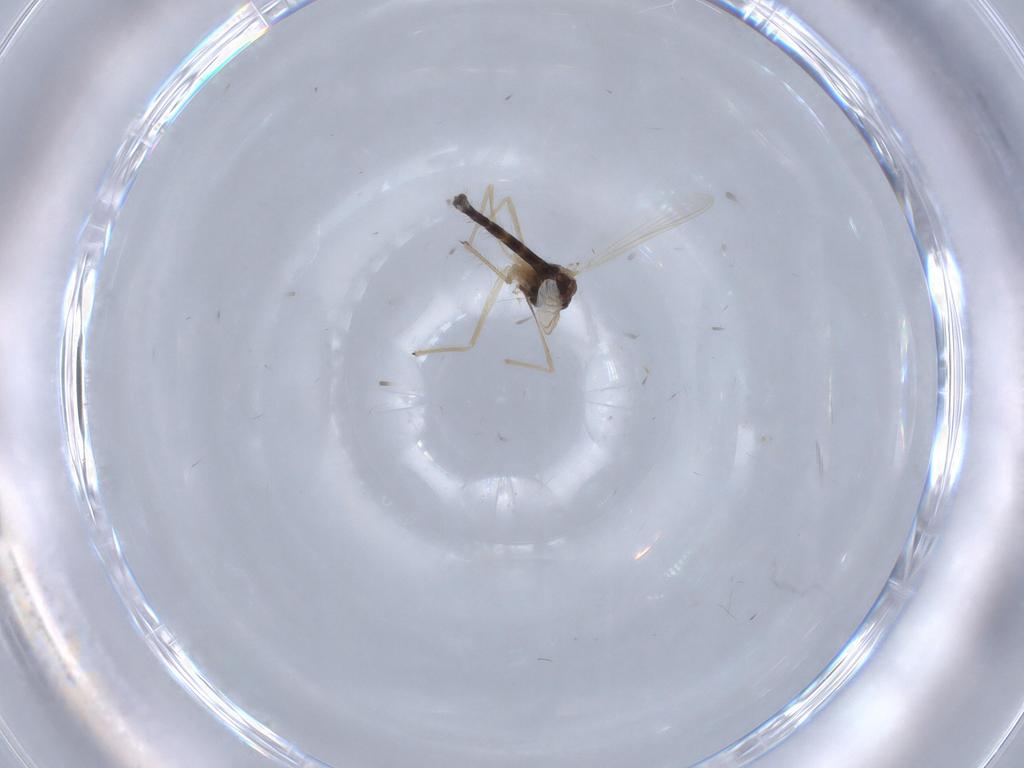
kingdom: Animalia
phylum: Arthropoda
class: Insecta
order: Diptera
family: Chironomidae
